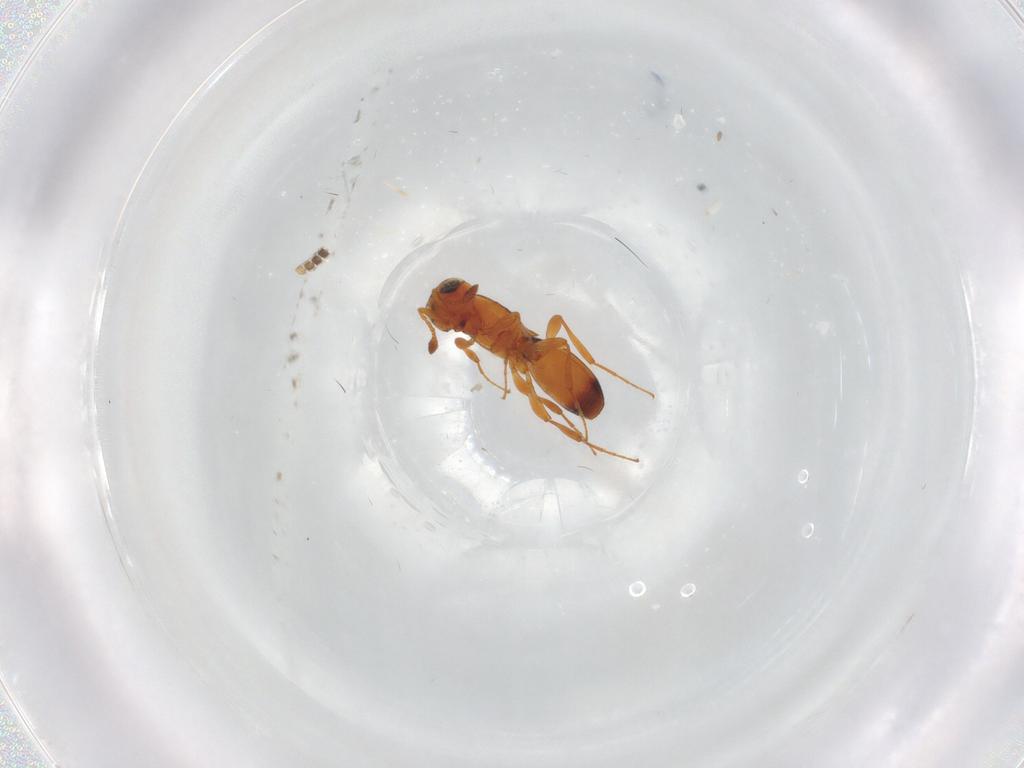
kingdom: Animalia
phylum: Arthropoda
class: Insecta
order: Hymenoptera
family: Platygastridae
